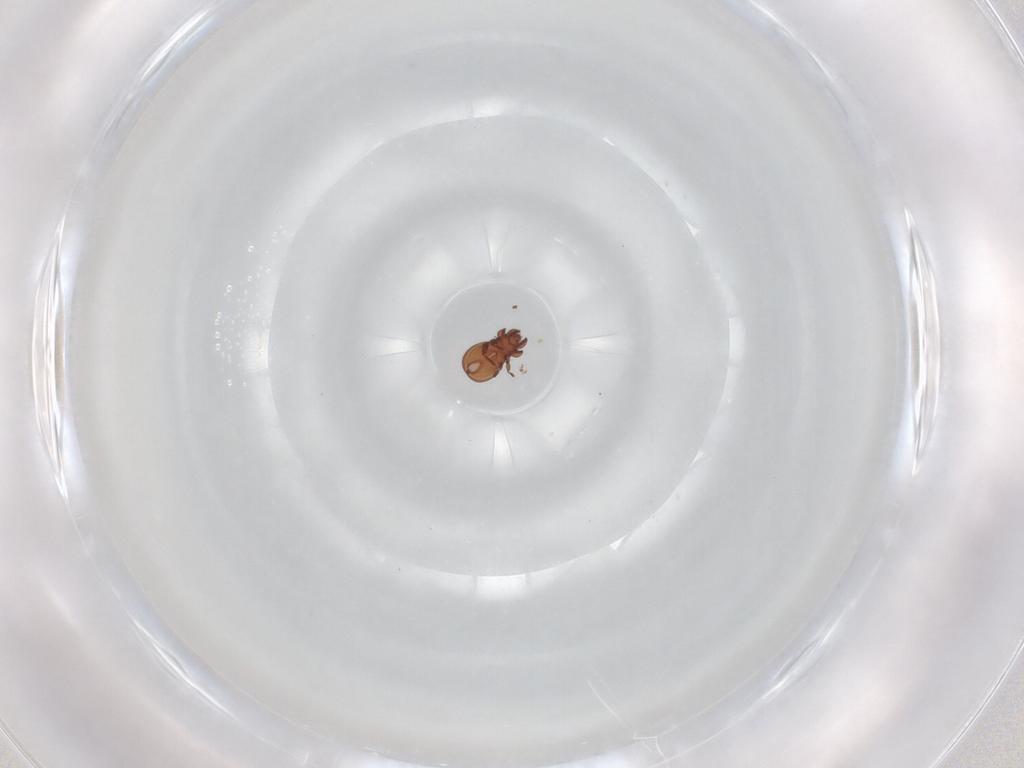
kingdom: Animalia
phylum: Arthropoda
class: Arachnida
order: Sarcoptiformes
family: Eremaeidae
